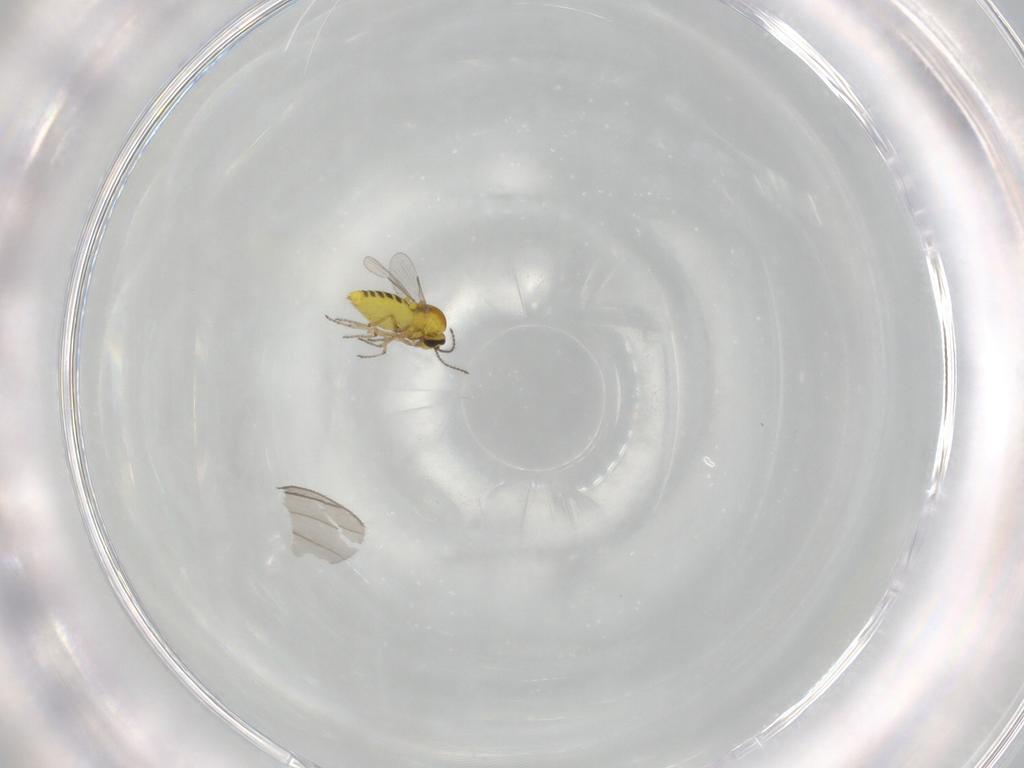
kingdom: Animalia
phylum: Arthropoda
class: Insecta
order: Diptera
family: Ceratopogonidae
